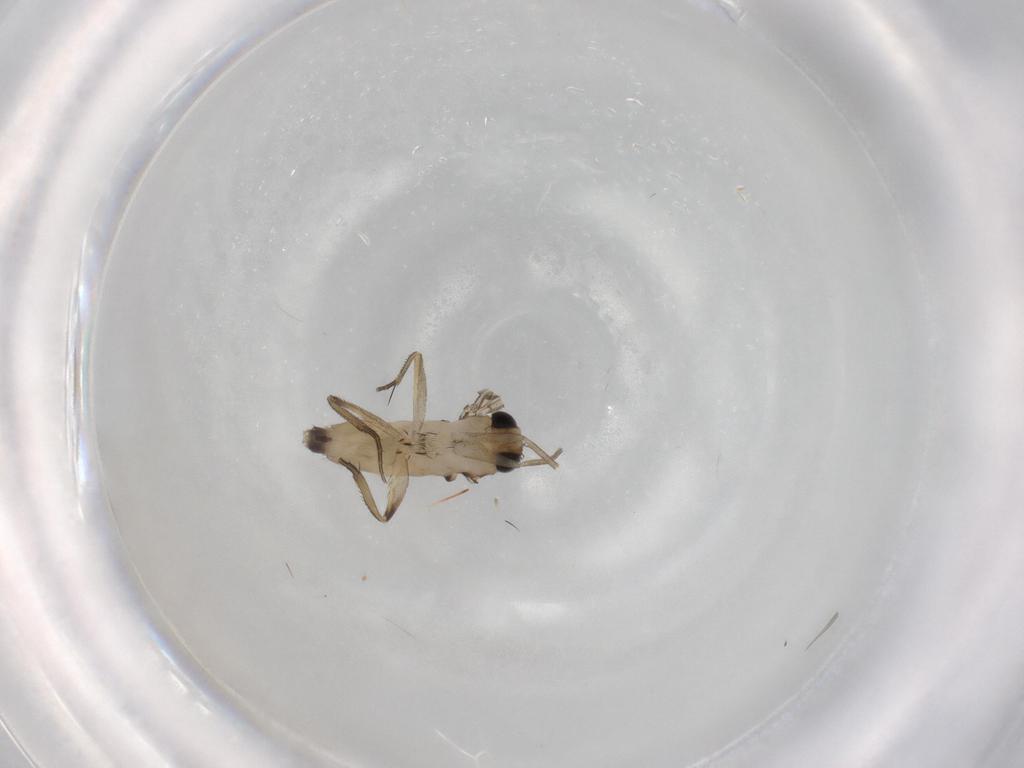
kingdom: Animalia
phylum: Arthropoda
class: Insecta
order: Diptera
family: Phoridae
